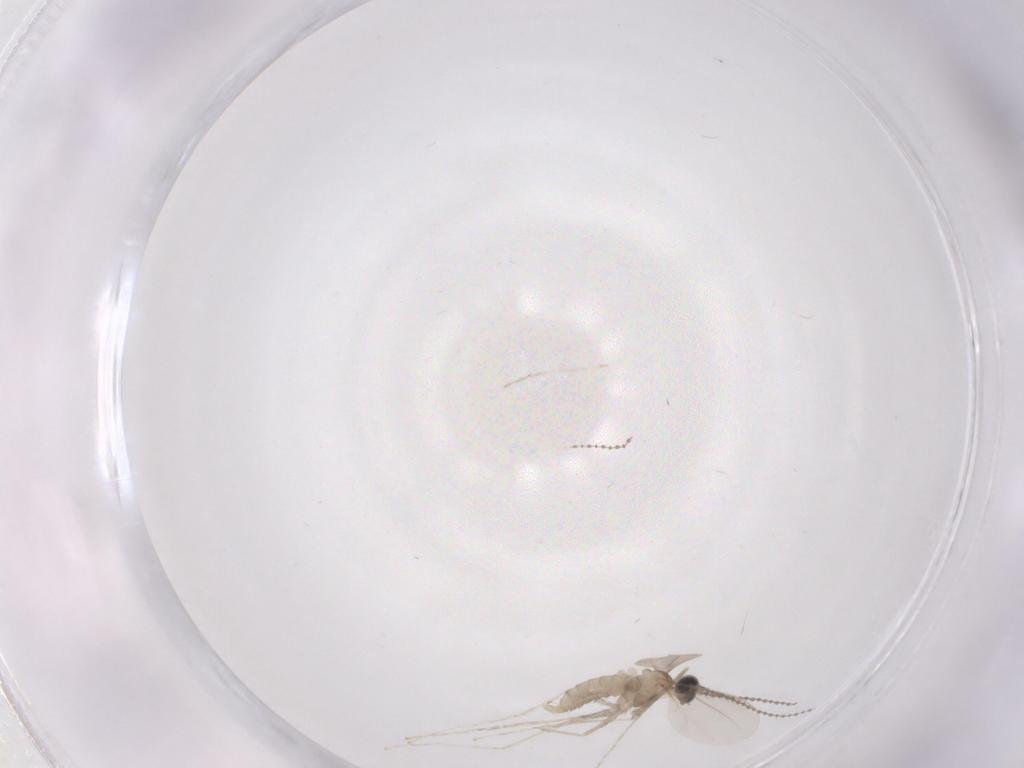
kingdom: Animalia
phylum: Arthropoda
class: Insecta
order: Diptera
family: Cecidomyiidae
